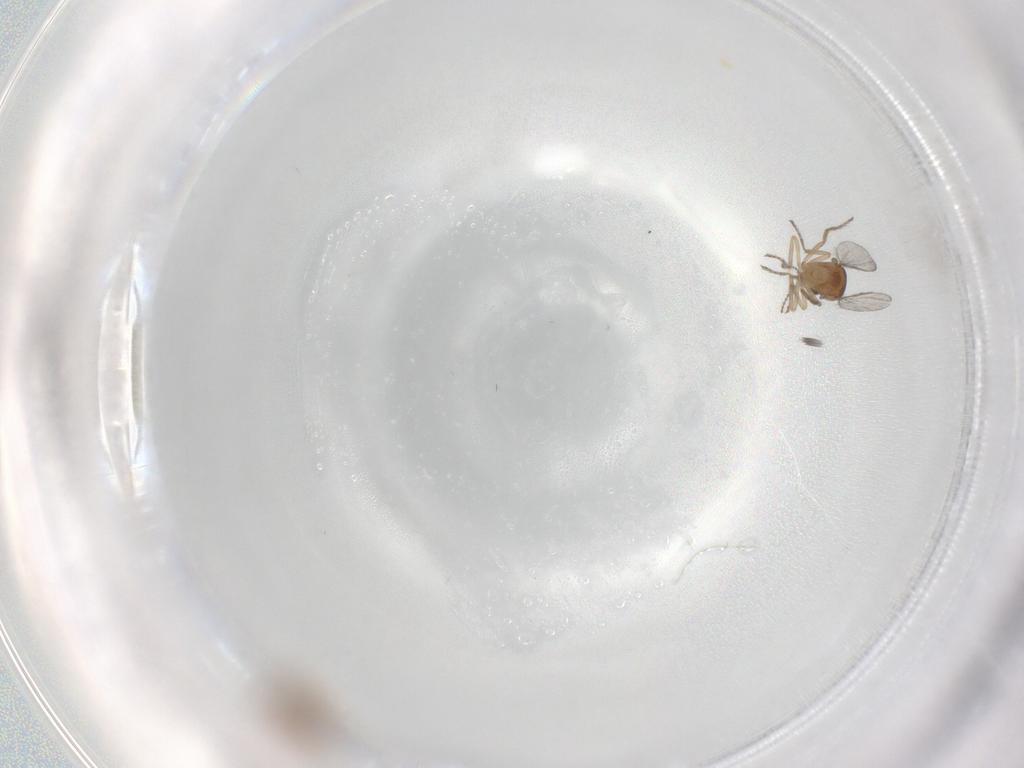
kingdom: Animalia
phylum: Arthropoda
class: Insecta
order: Diptera
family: Ceratopogonidae
